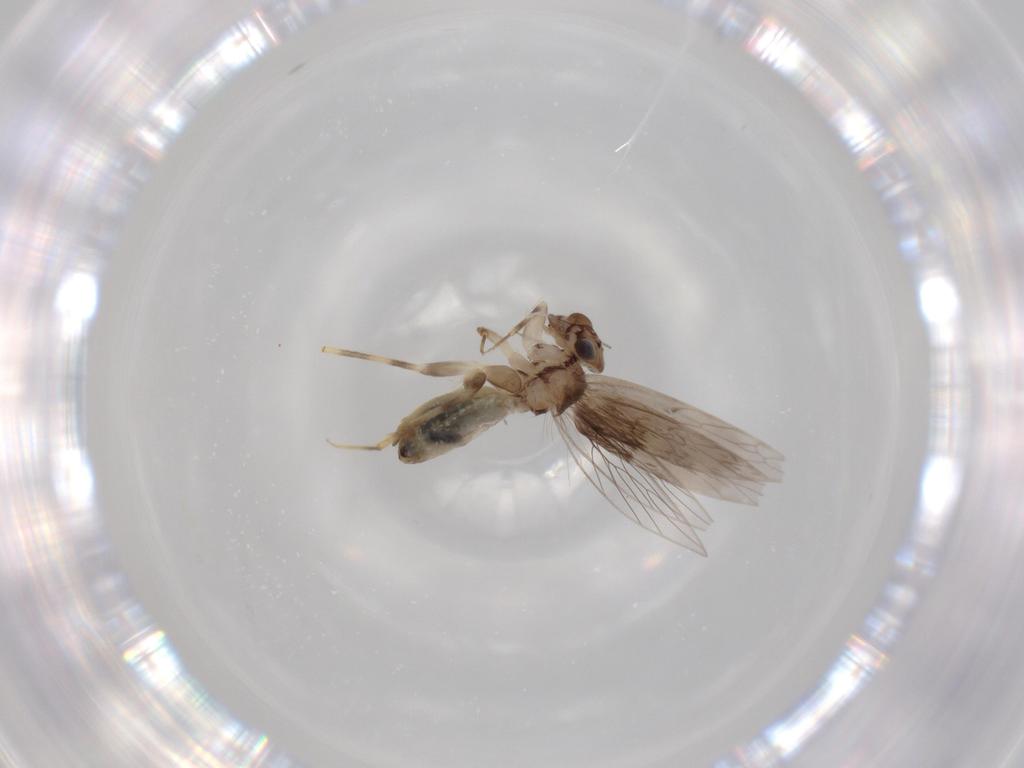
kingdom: Animalia
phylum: Arthropoda
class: Insecta
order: Psocodea
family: Lepidopsocidae
